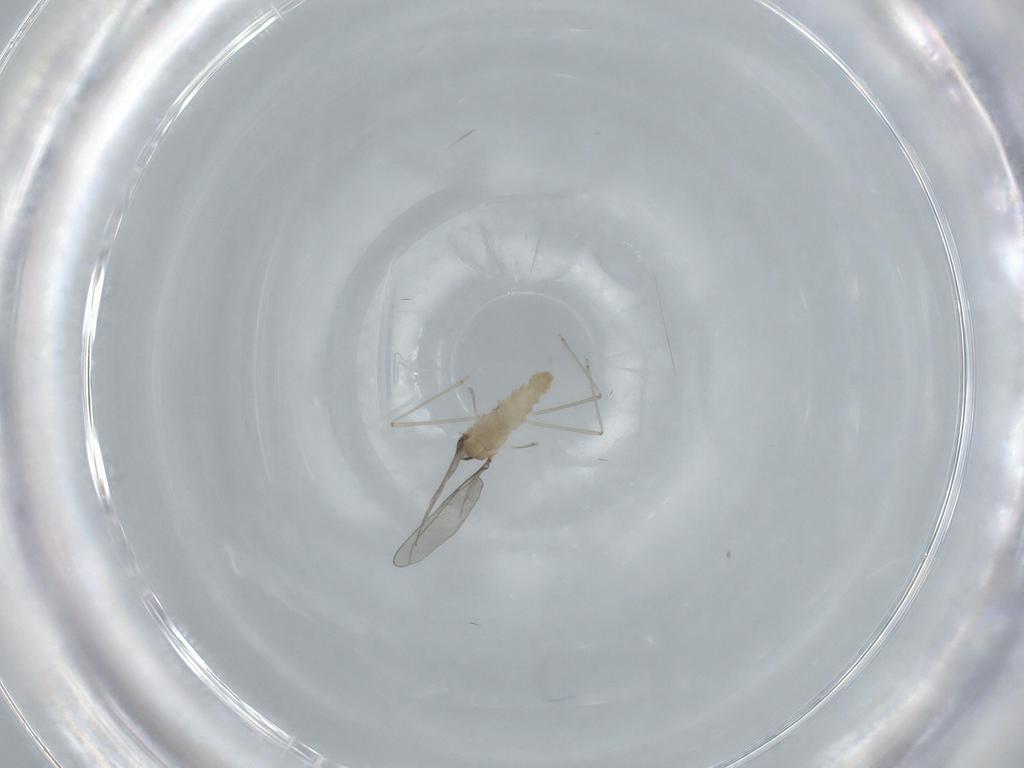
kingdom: Animalia
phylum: Arthropoda
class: Insecta
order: Diptera
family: Cecidomyiidae
